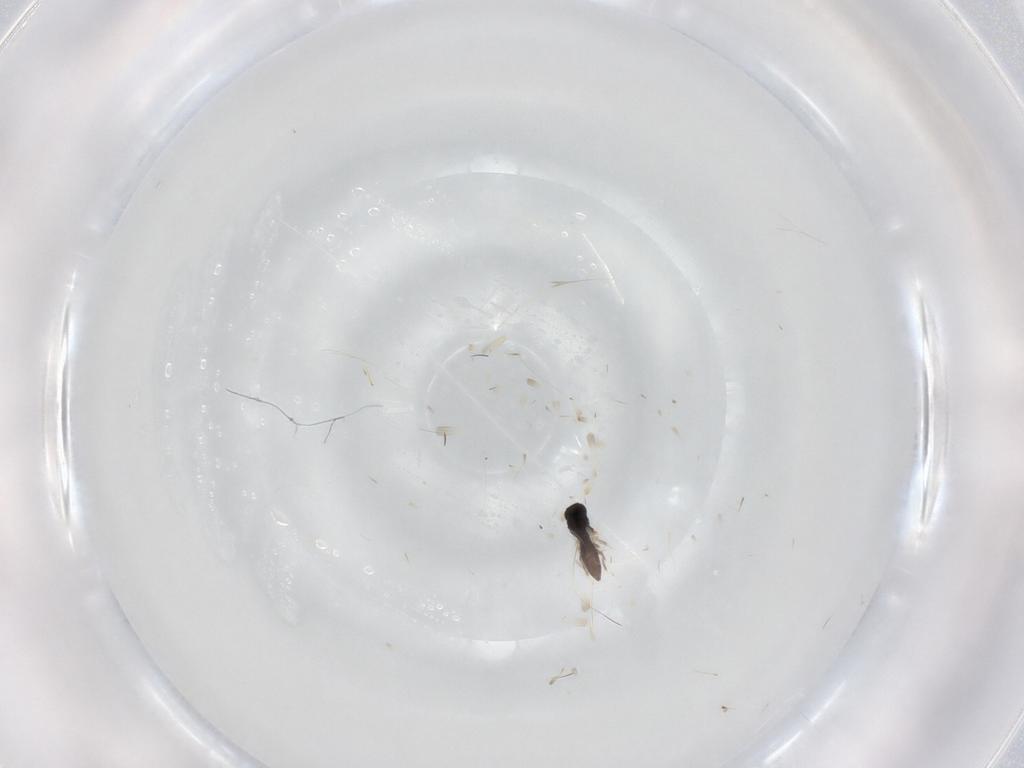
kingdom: Animalia
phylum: Arthropoda
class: Insecta
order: Hymenoptera
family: Scelionidae
